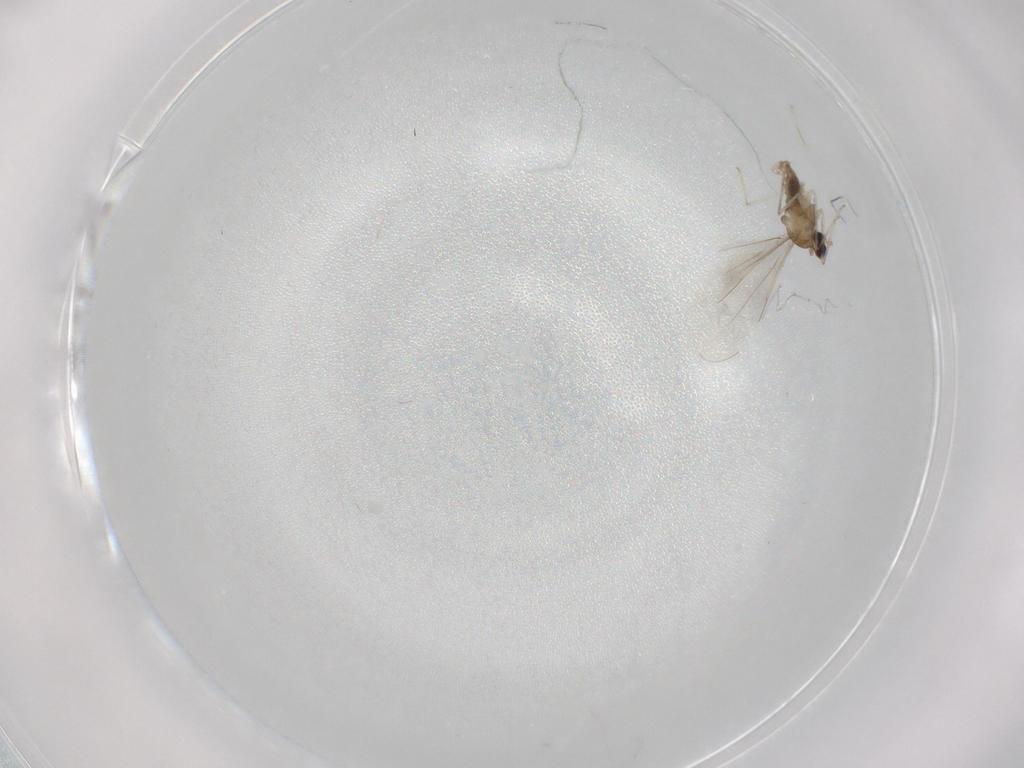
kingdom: Animalia
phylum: Arthropoda
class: Insecta
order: Diptera
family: Cecidomyiidae
